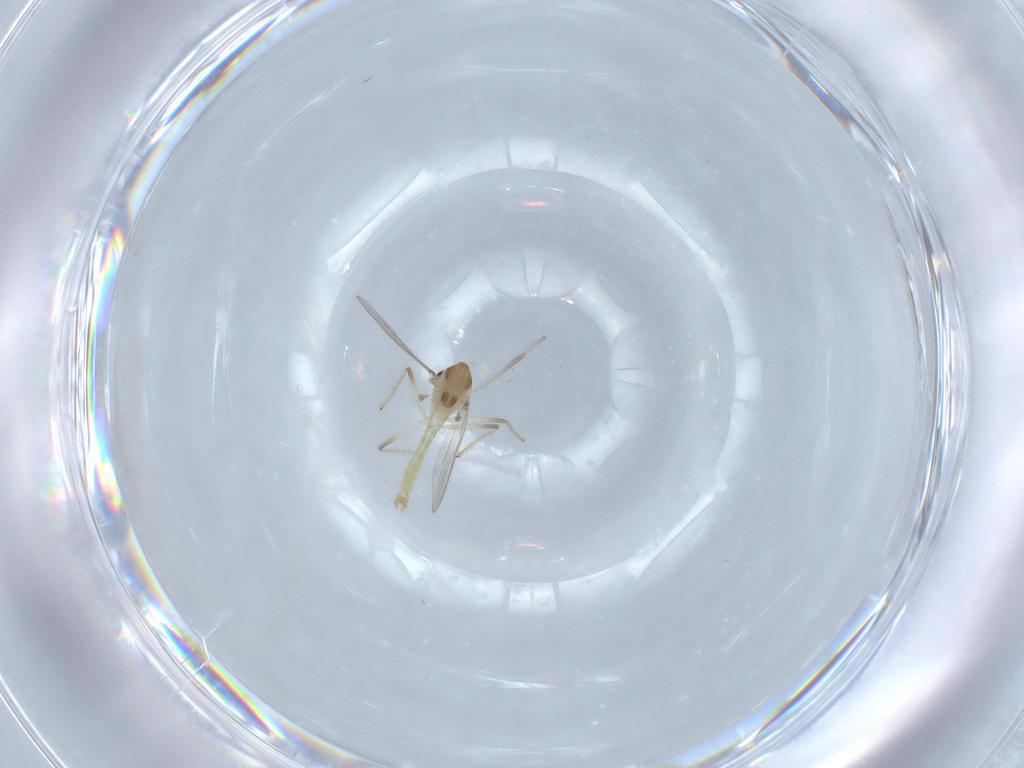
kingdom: Animalia
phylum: Arthropoda
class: Insecta
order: Diptera
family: Chironomidae
